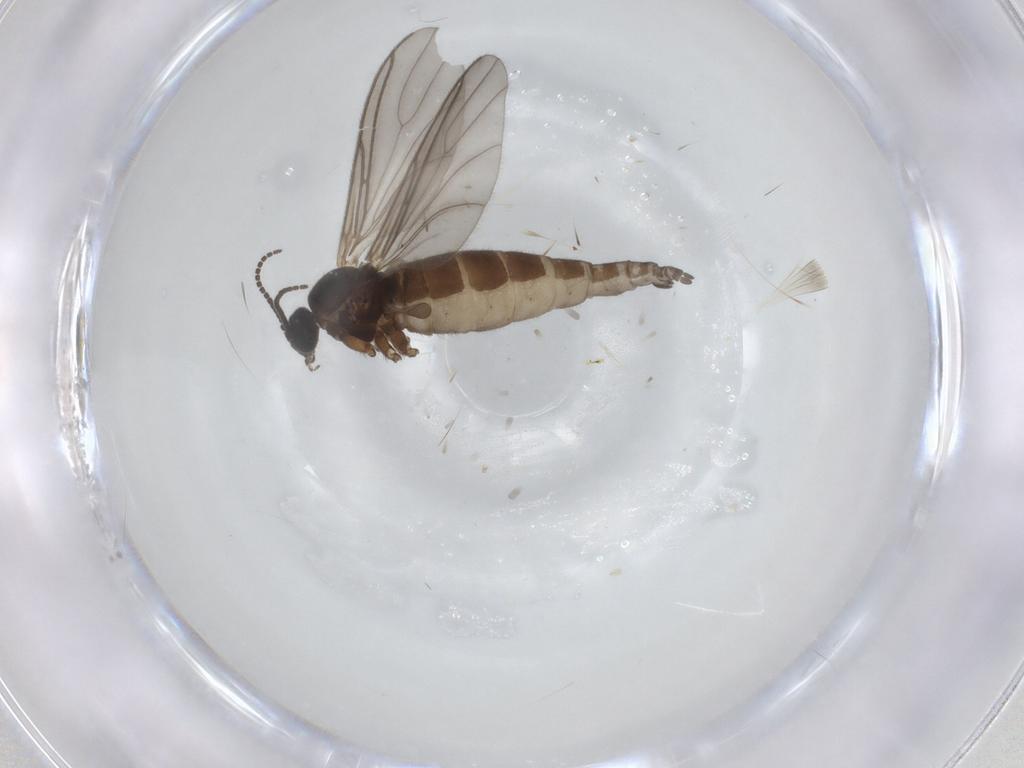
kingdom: Animalia
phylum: Arthropoda
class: Insecta
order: Diptera
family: Sciaridae
